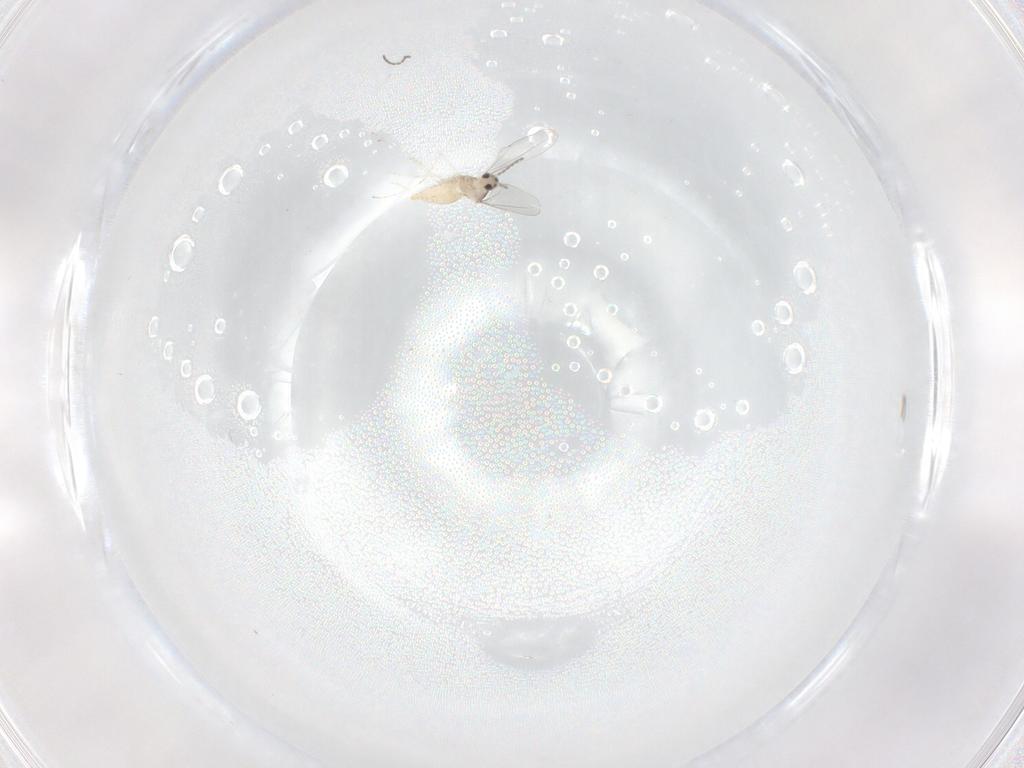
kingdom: Animalia
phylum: Arthropoda
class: Insecta
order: Diptera
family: Cecidomyiidae
